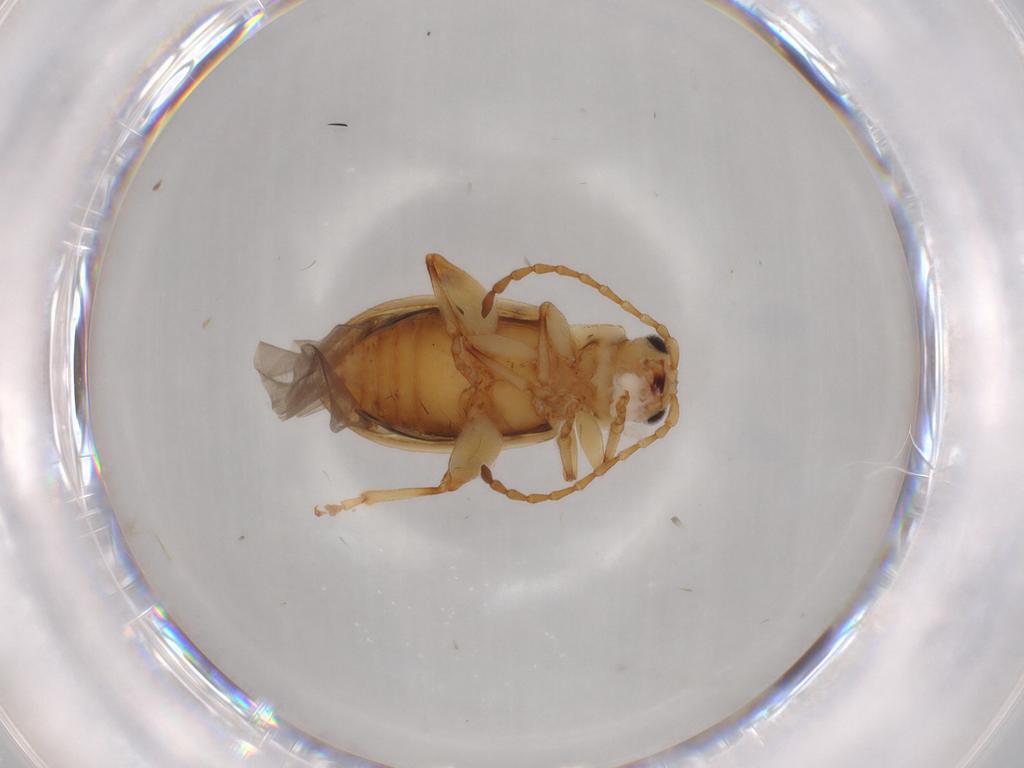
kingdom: Animalia
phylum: Arthropoda
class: Insecta
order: Coleoptera
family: Chrysomelidae
